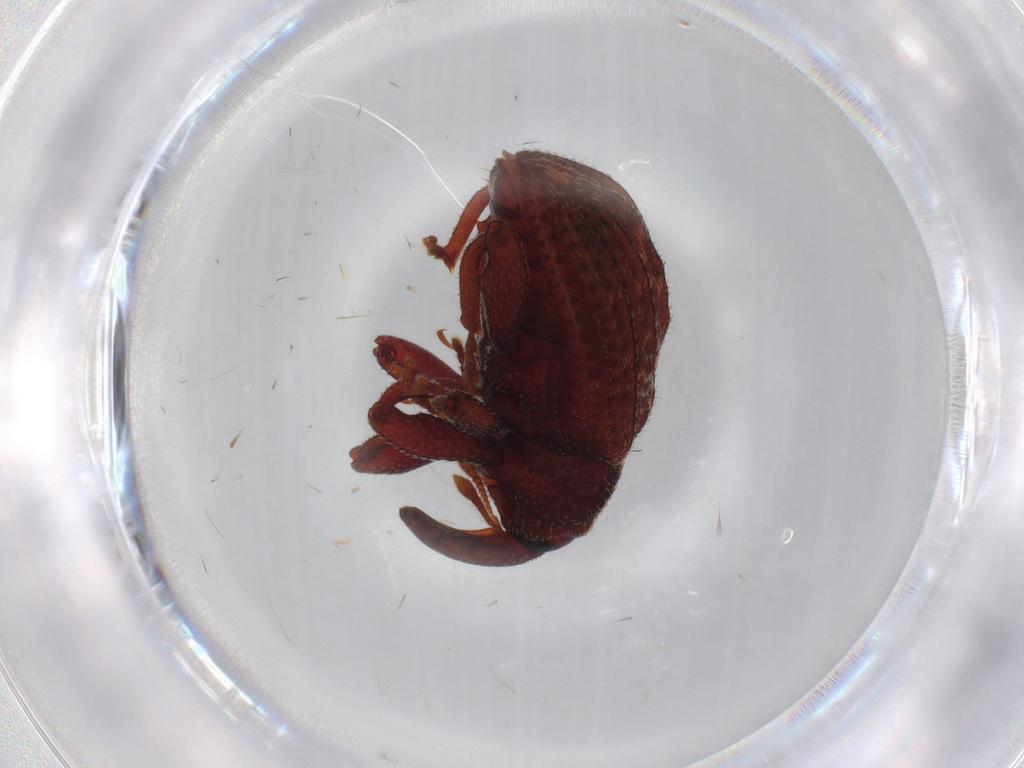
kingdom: Animalia
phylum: Arthropoda
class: Insecta
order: Coleoptera
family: Curculionidae
